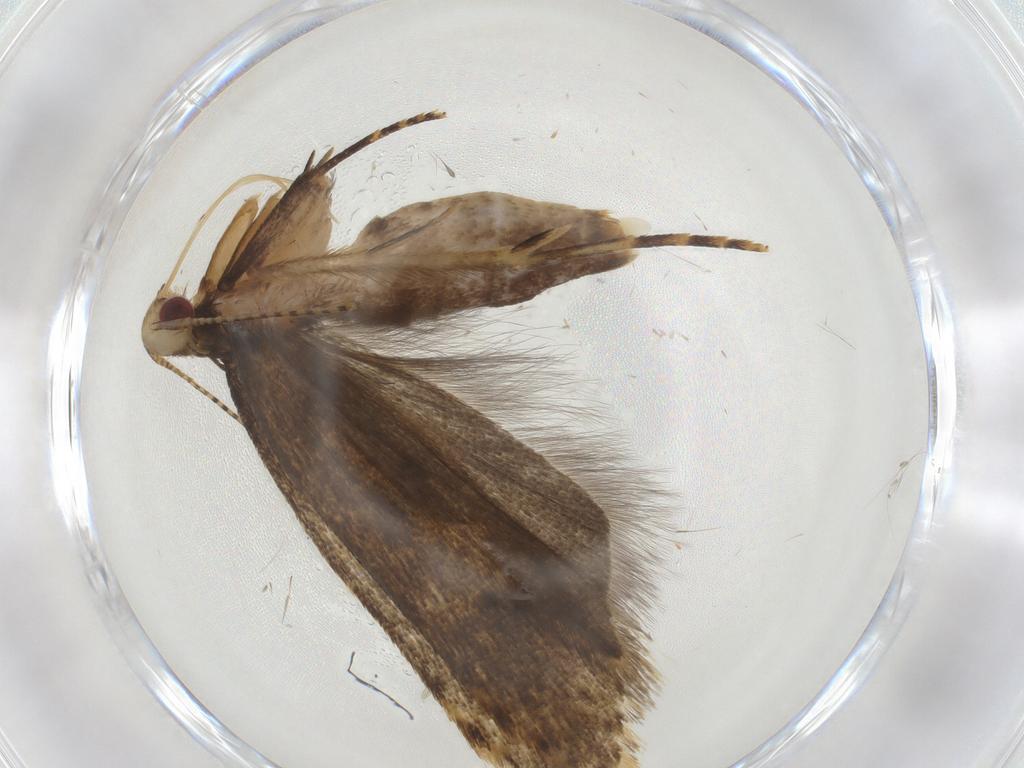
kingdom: Animalia
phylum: Arthropoda
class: Insecta
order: Lepidoptera
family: Gelechiidae
